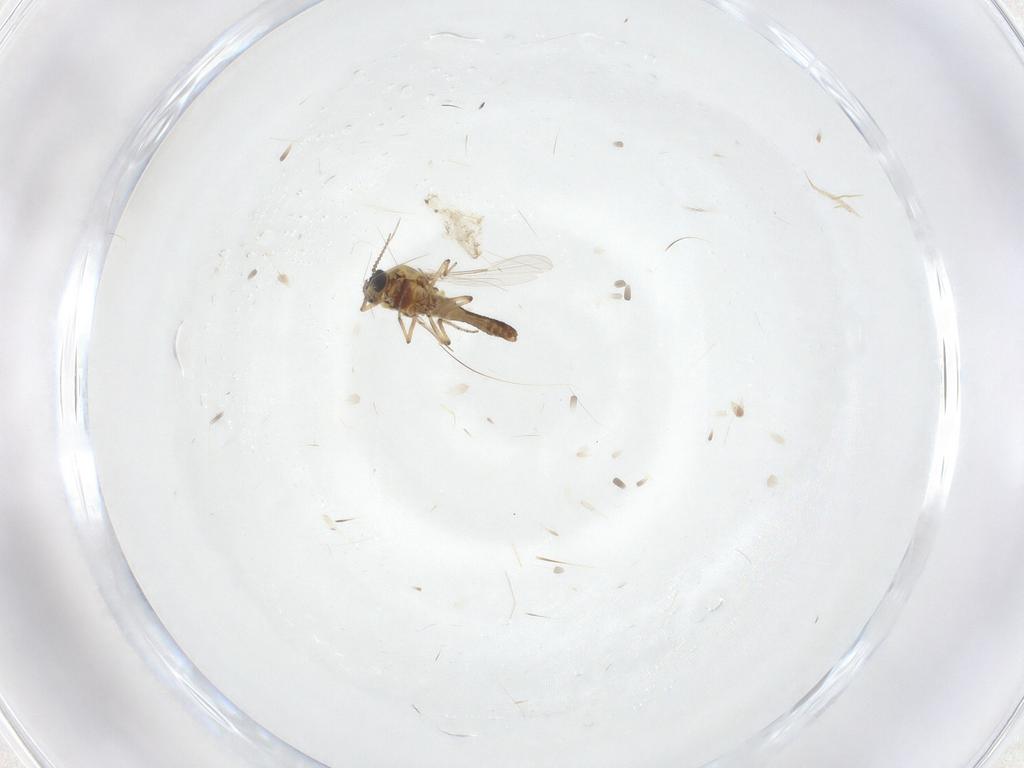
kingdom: Animalia
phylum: Arthropoda
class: Insecta
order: Diptera
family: Ceratopogonidae
